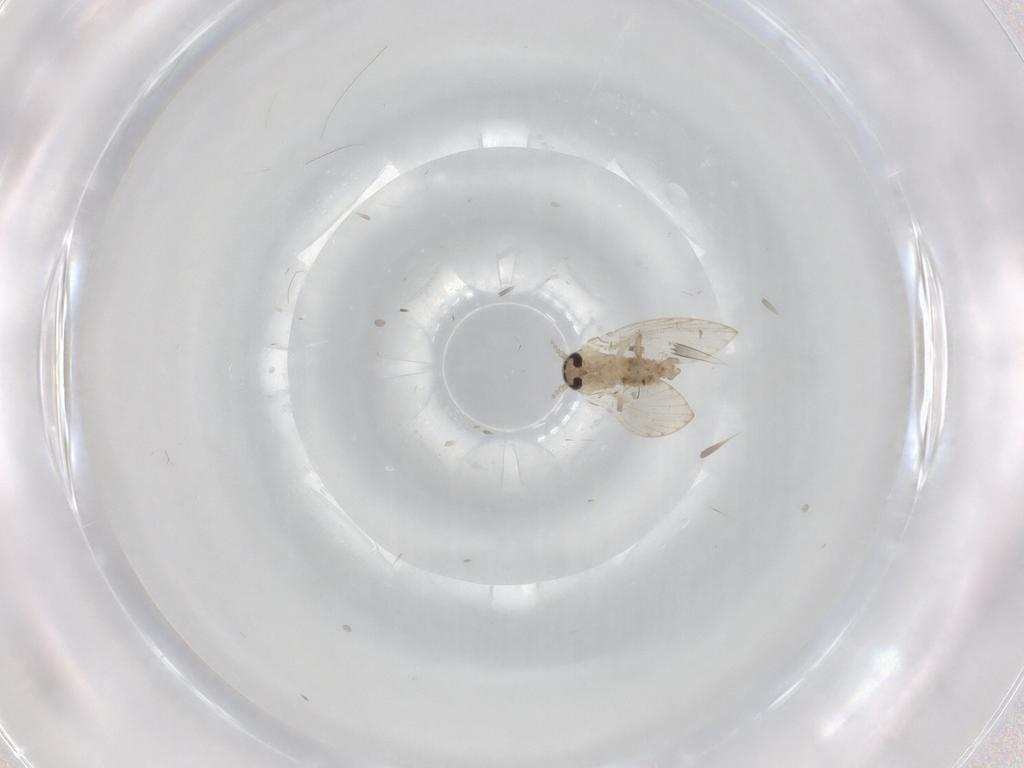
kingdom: Animalia
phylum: Arthropoda
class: Insecta
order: Diptera
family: Psychodidae
